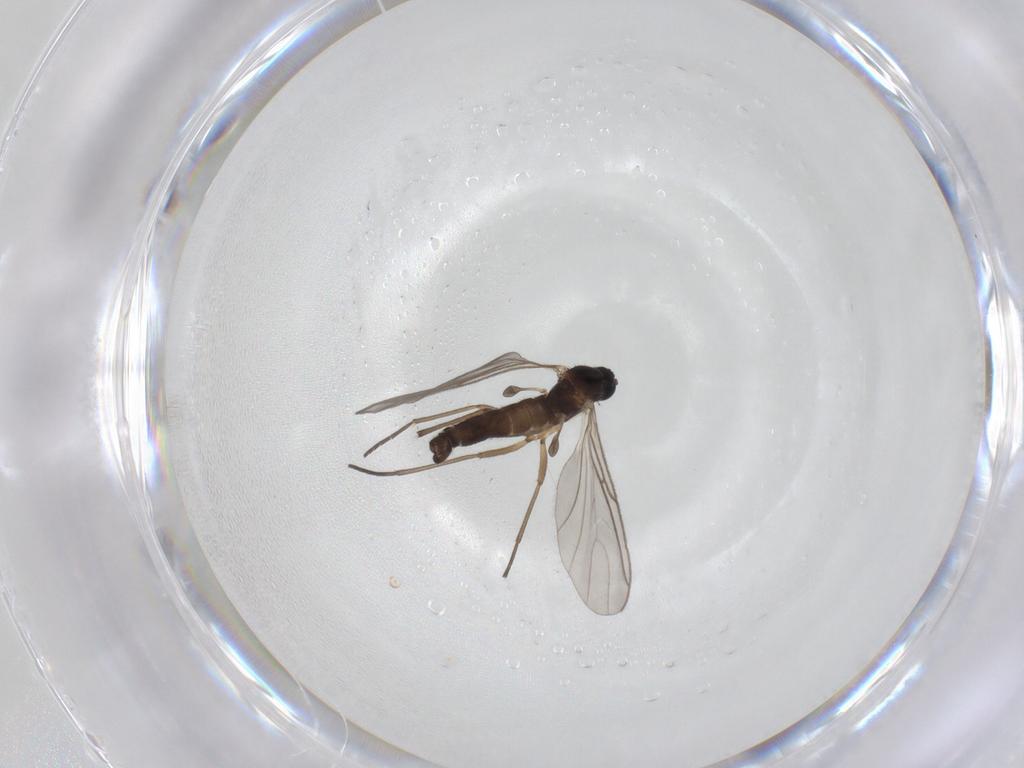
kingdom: Animalia
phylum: Arthropoda
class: Insecta
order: Diptera
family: Sciaridae
